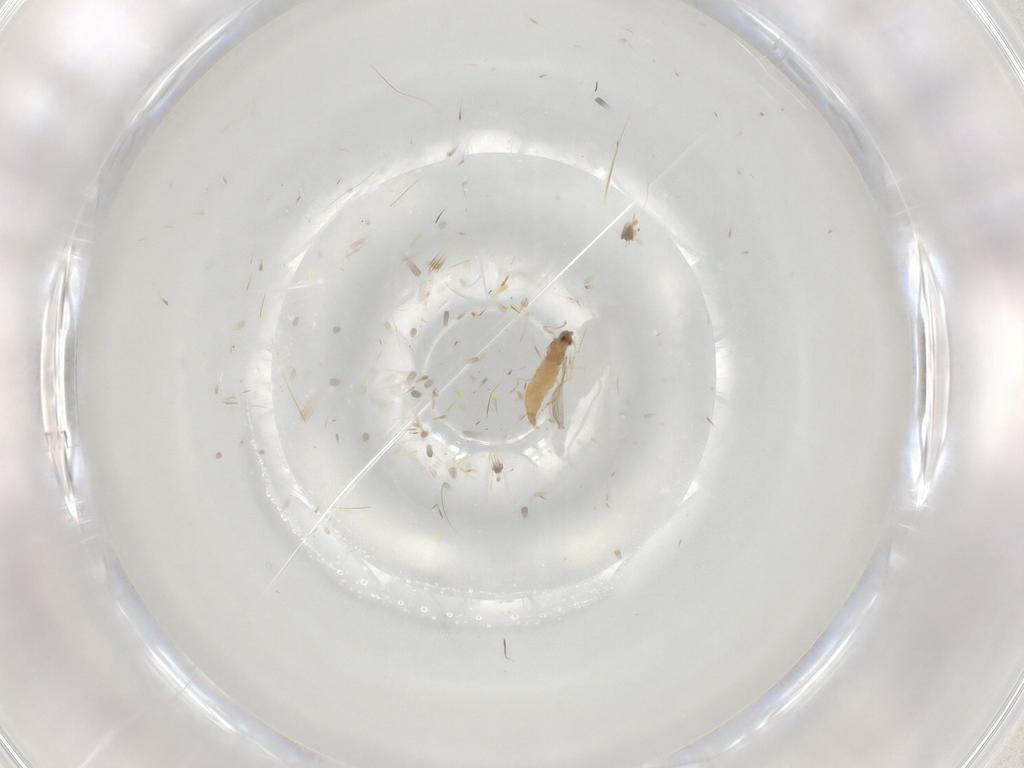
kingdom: Animalia
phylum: Arthropoda
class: Insecta
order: Diptera
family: Cecidomyiidae
